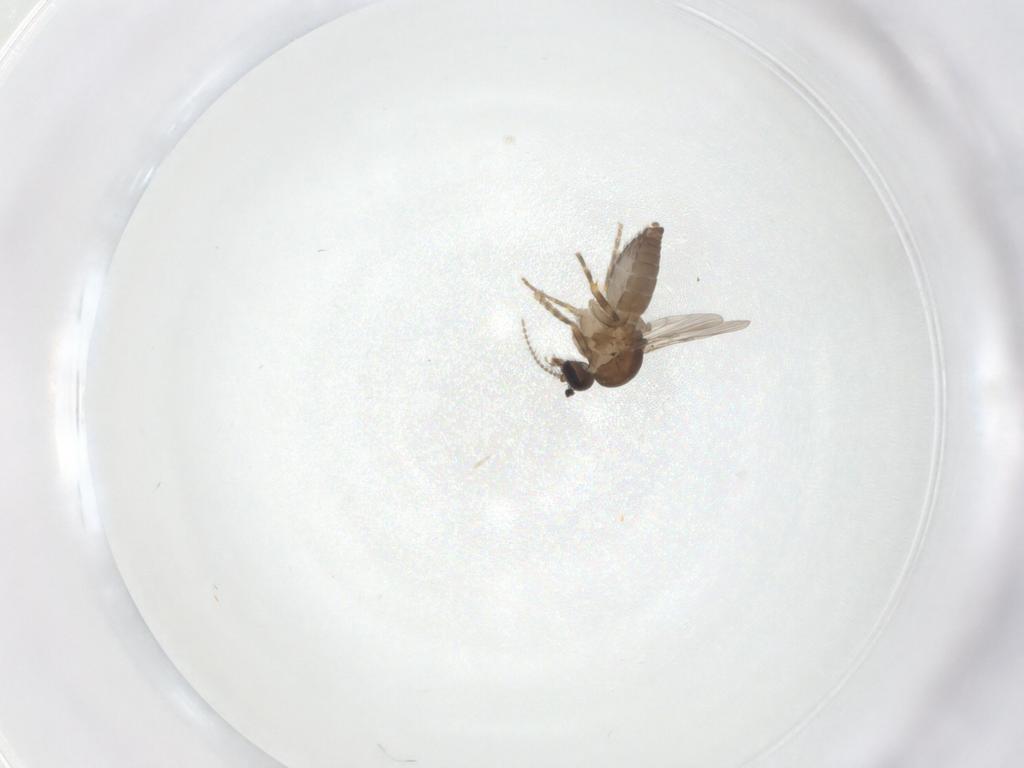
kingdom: Animalia
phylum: Arthropoda
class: Insecta
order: Diptera
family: Ceratopogonidae
